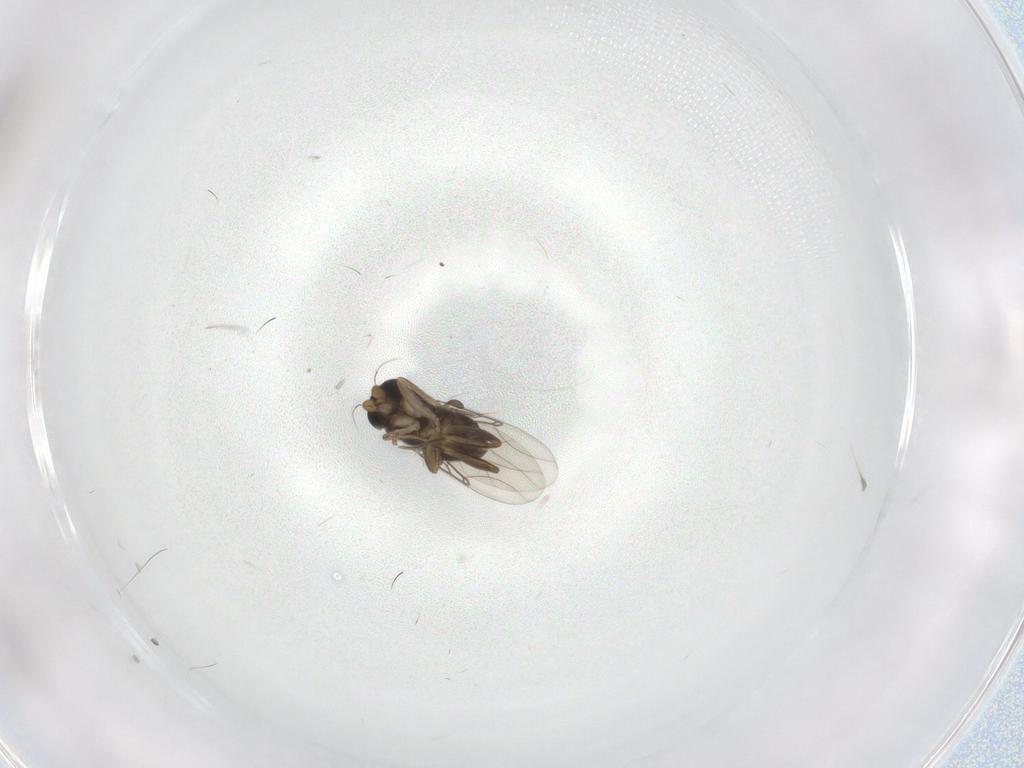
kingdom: Animalia
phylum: Arthropoda
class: Insecta
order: Diptera
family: Phoridae
